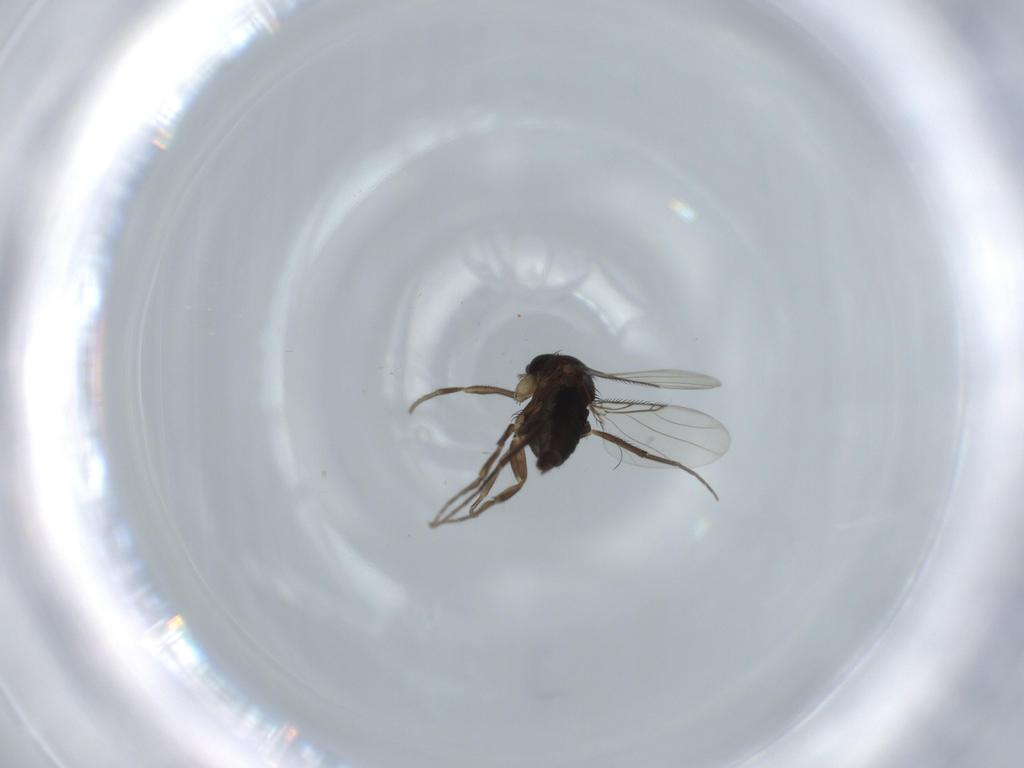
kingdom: Animalia
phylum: Arthropoda
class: Insecta
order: Diptera
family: Phoridae
